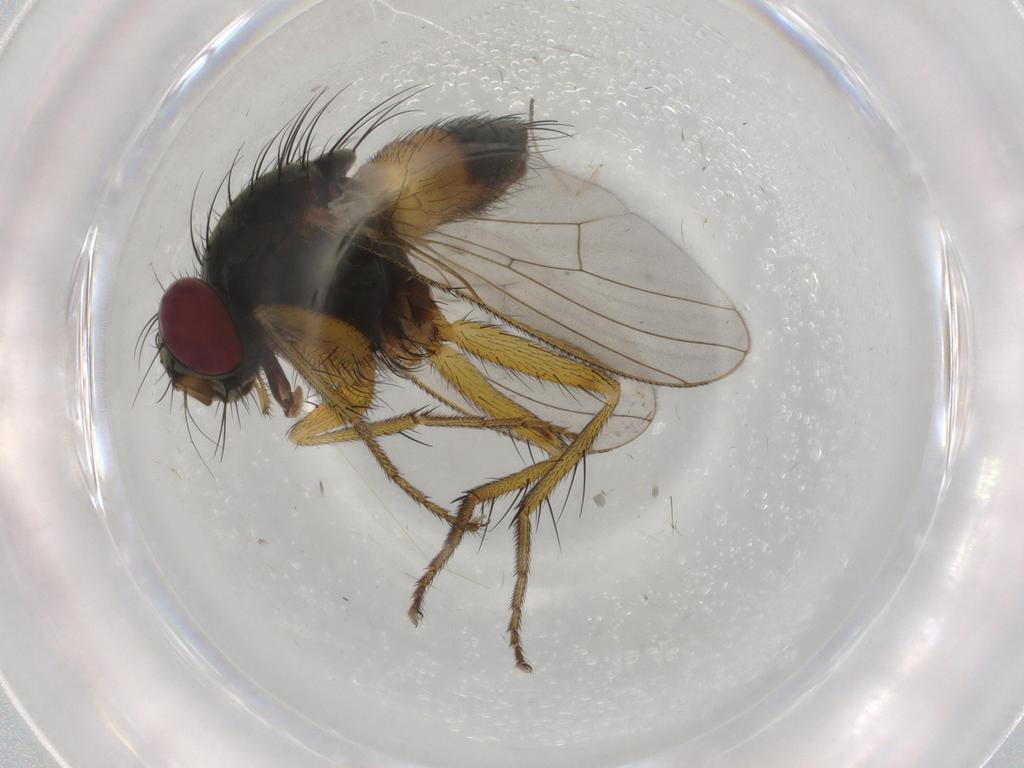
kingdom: Animalia
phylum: Arthropoda
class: Insecta
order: Diptera
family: Muscidae
